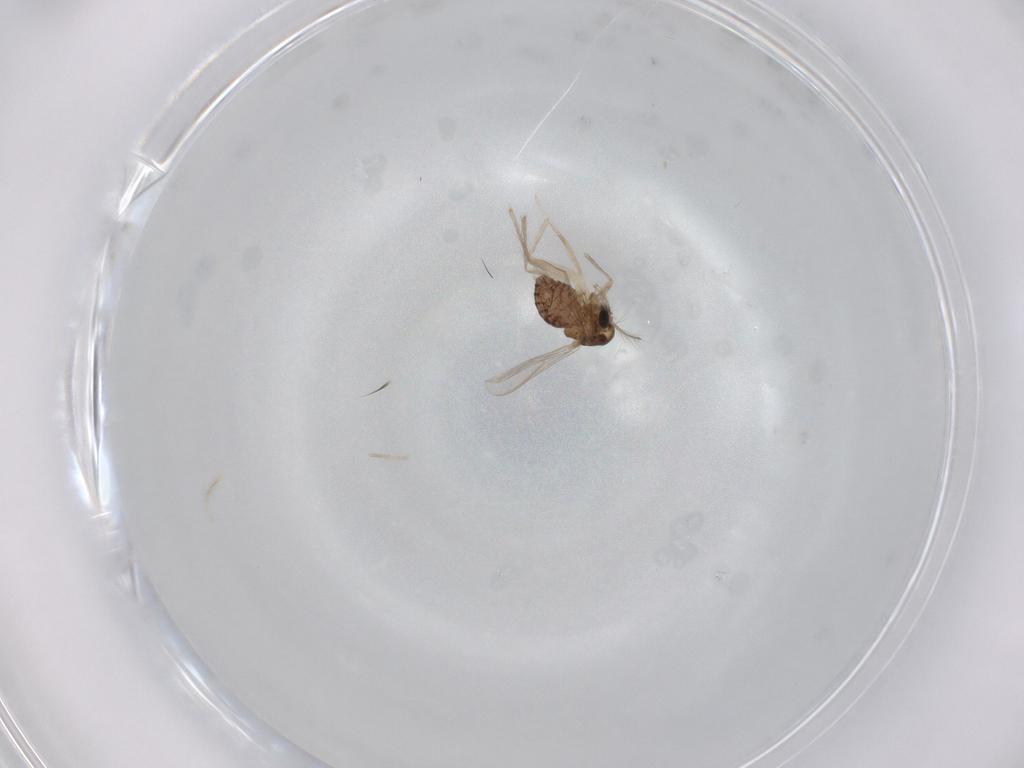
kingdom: Animalia
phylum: Arthropoda
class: Insecta
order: Diptera
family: Chironomidae
